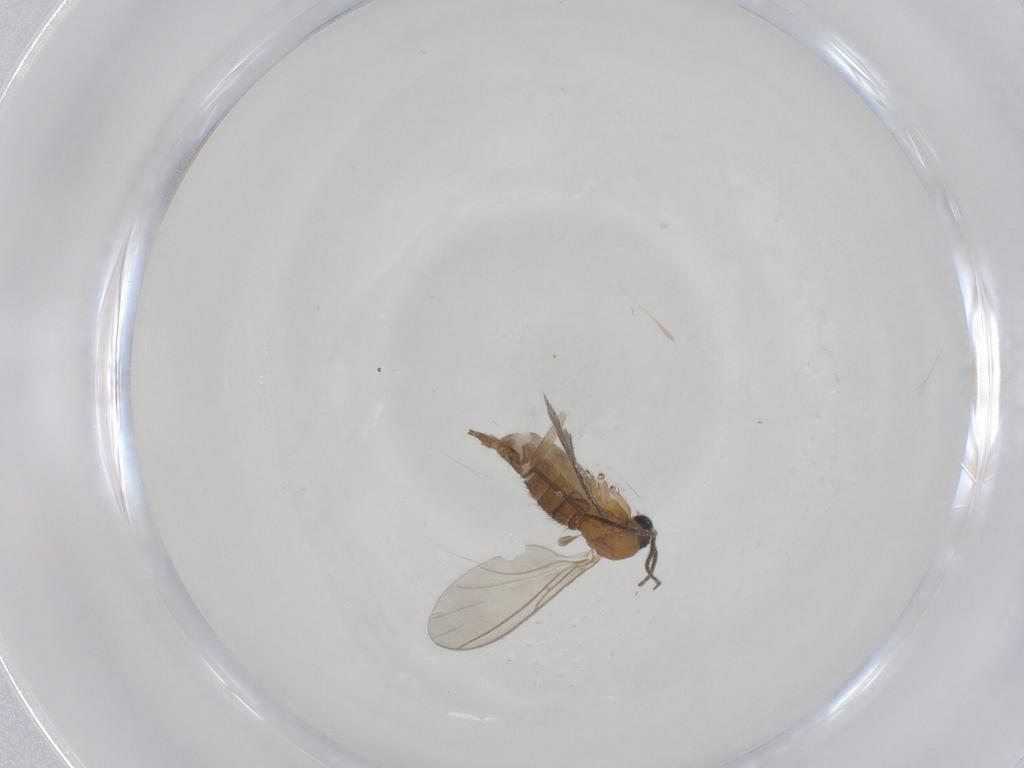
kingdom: Animalia
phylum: Arthropoda
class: Insecta
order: Diptera
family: Sciaridae
